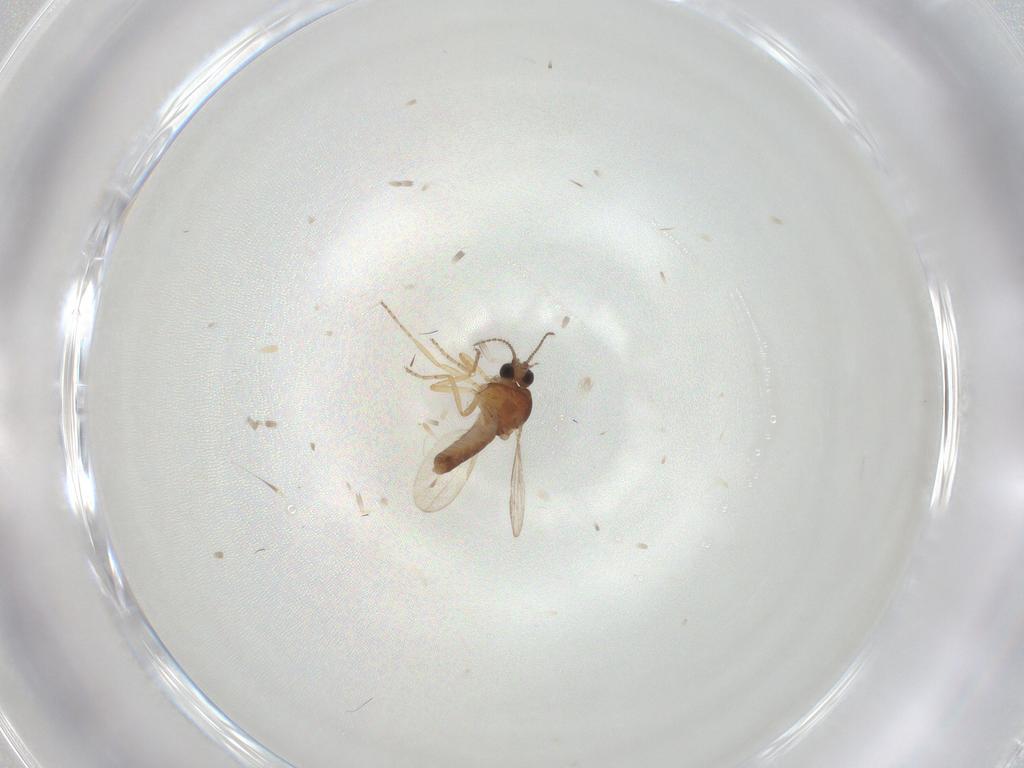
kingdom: Animalia
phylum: Arthropoda
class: Insecta
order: Diptera
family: Ceratopogonidae
